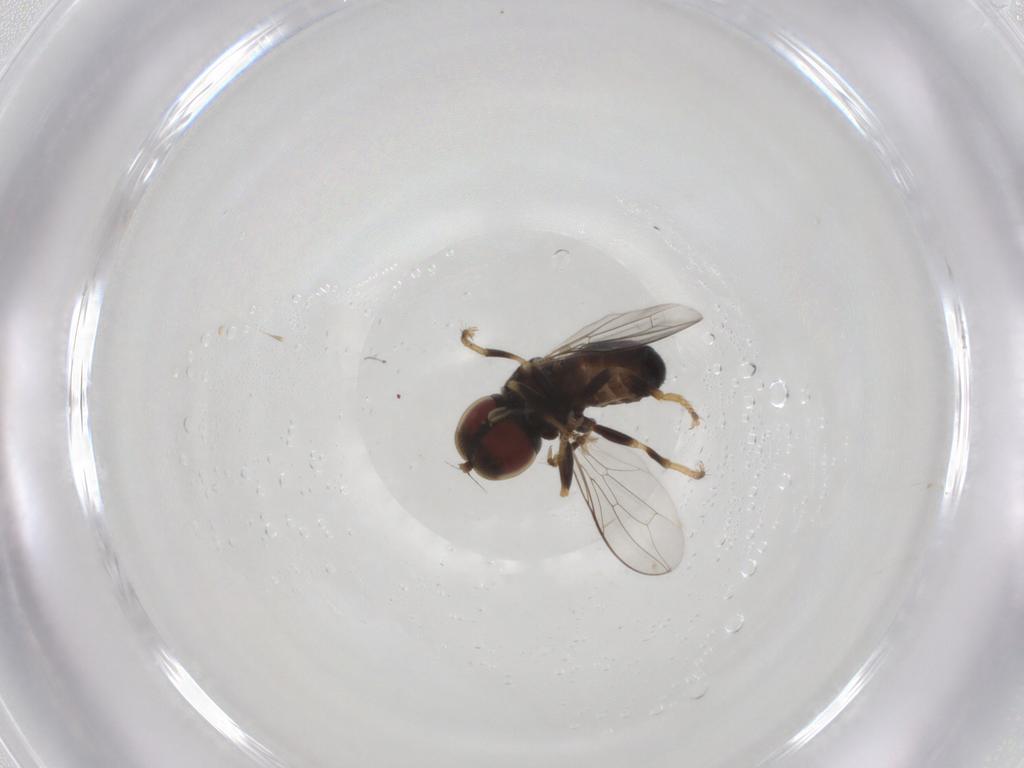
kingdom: Animalia
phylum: Arthropoda
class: Insecta
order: Diptera
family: Pipunculidae
